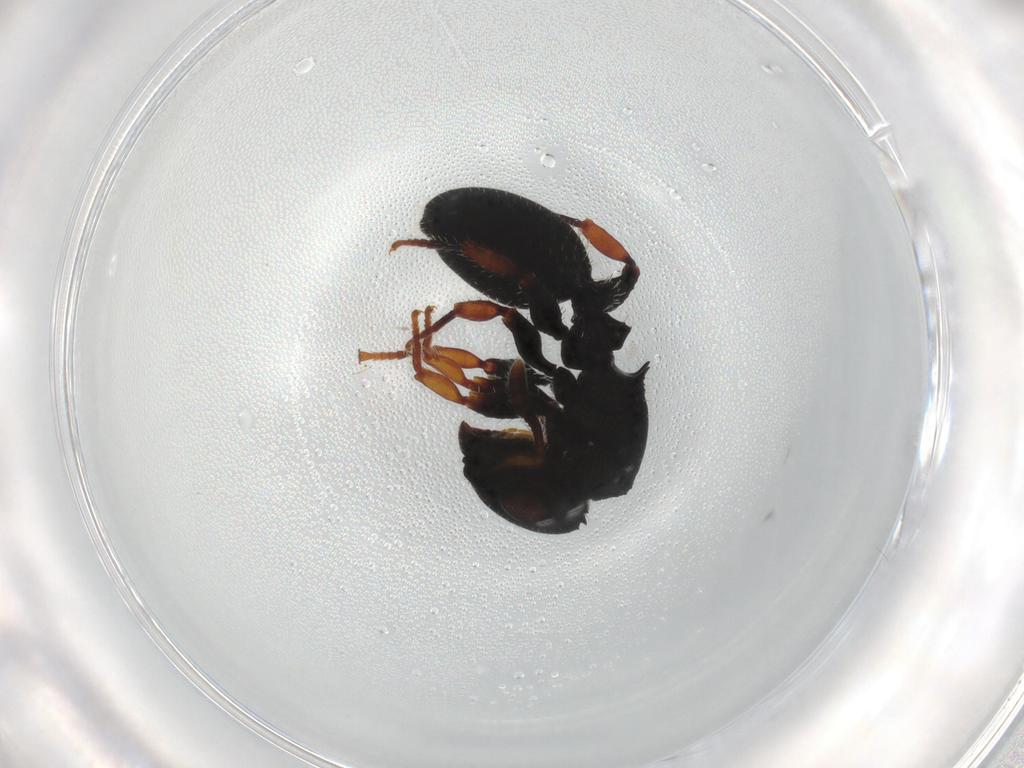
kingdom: Animalia
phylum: Arthropoda
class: Insecta
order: Hymenoptera
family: Formicidae
